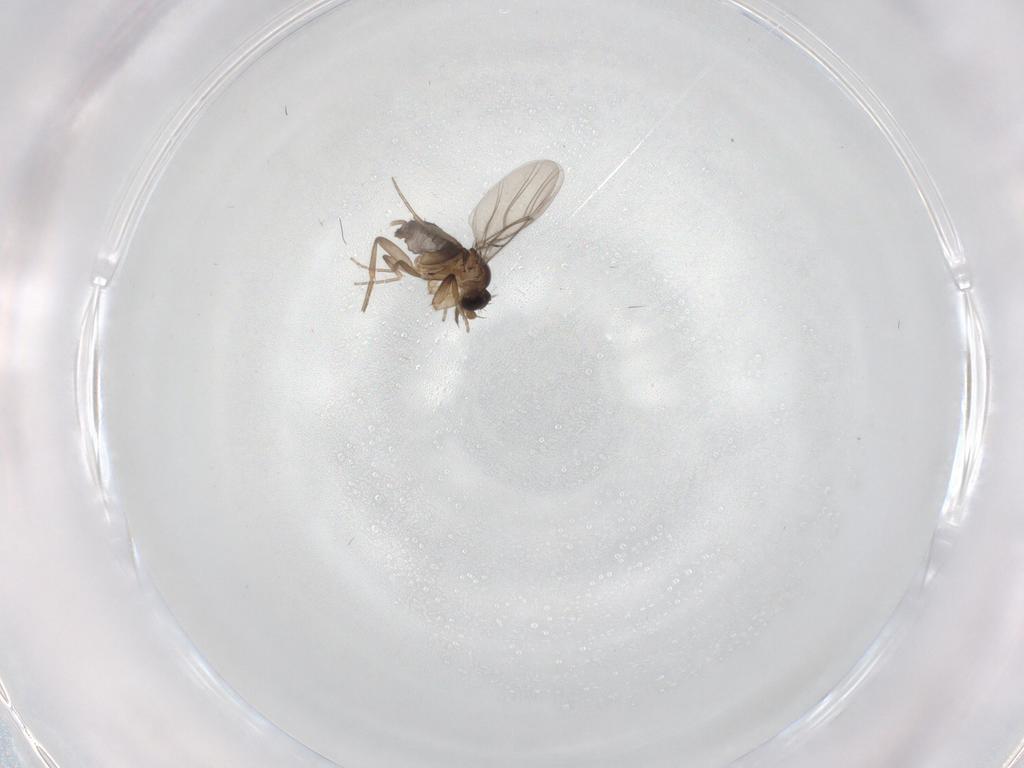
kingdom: Animalia
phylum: Arthropoda
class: Insecta
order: Diptera
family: Phoridae
